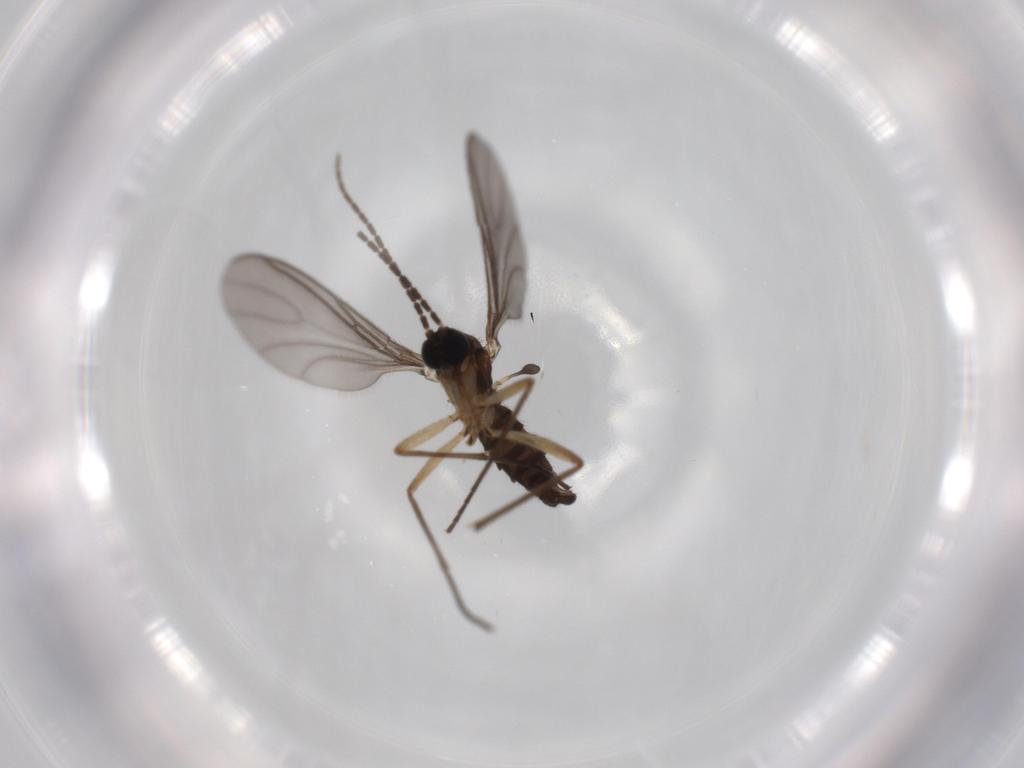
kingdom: Animalia
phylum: Arthropoda
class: Insecta
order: Diptera
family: Sciaridae
